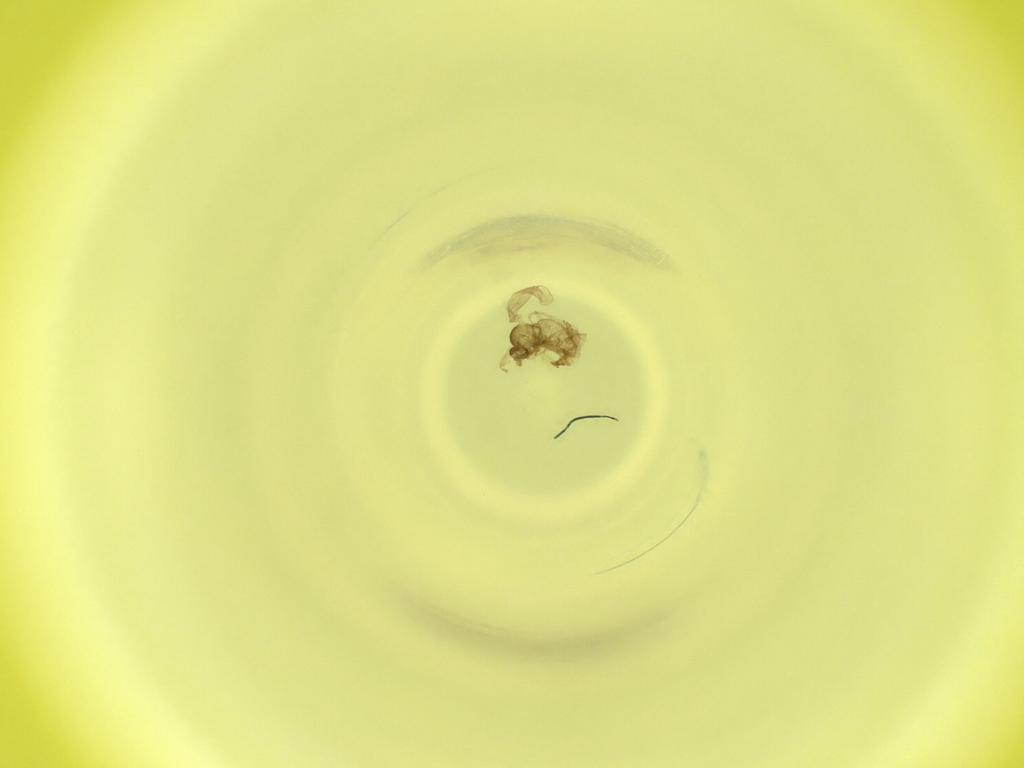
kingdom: Animalia
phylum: Arthropoda
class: Insecta
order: Diptera
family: Cecidomyiidae
